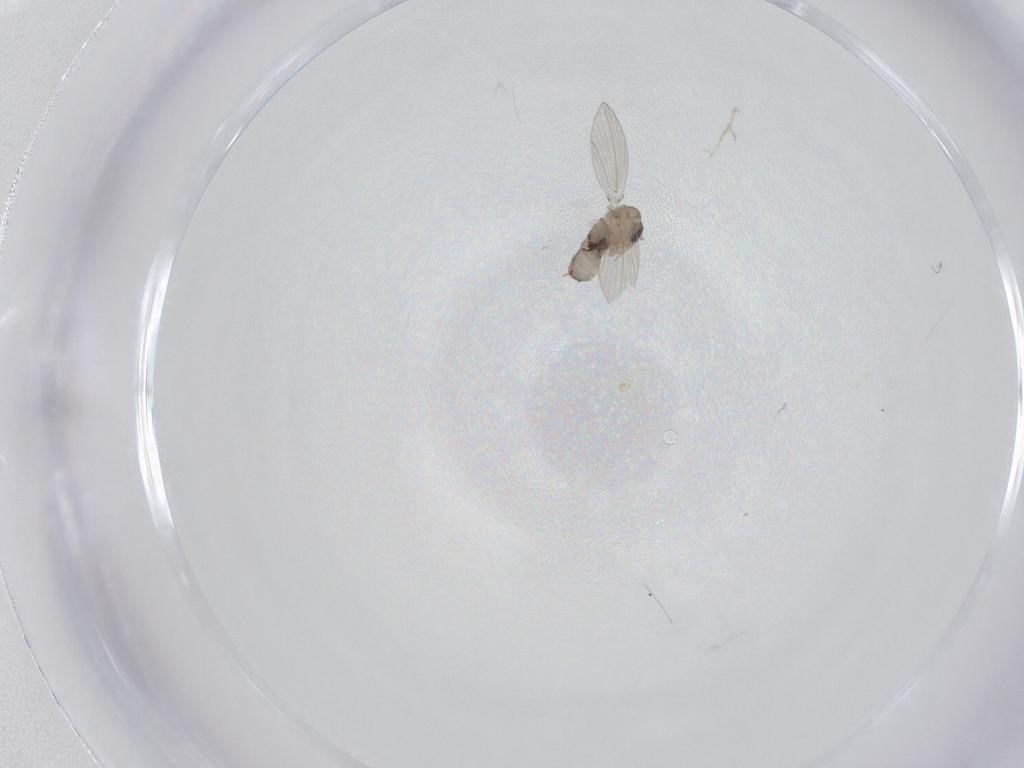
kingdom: Animalia
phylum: Arthropoda
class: Insecta
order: Diptera
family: Psychodidae
